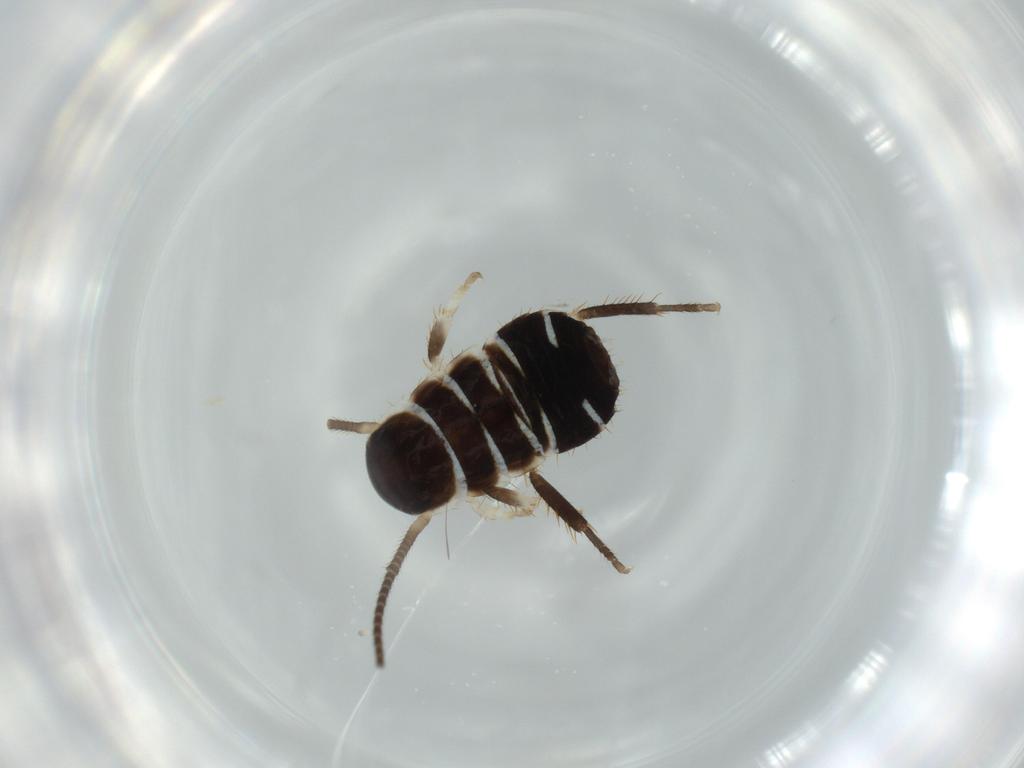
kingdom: Animalia
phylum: Arthropoda
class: Insecta
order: Blattodea
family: Ectobiidae
